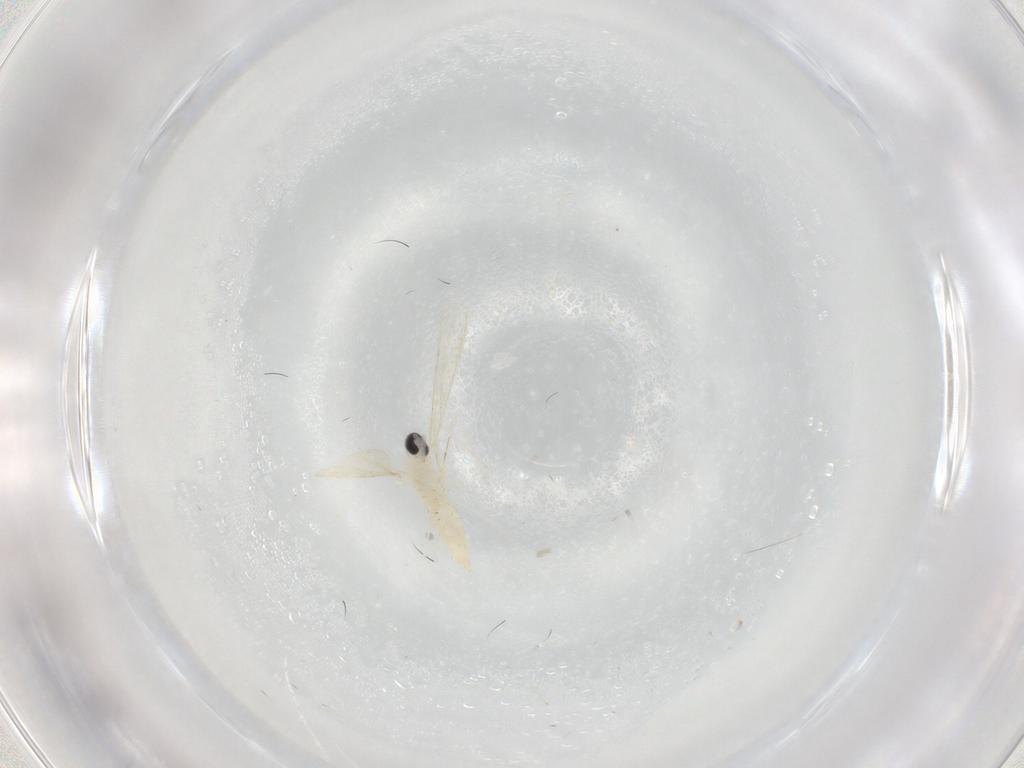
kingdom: Animalia
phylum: Arthropoda
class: Insecta
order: Diptera
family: Cecidomyiidae
